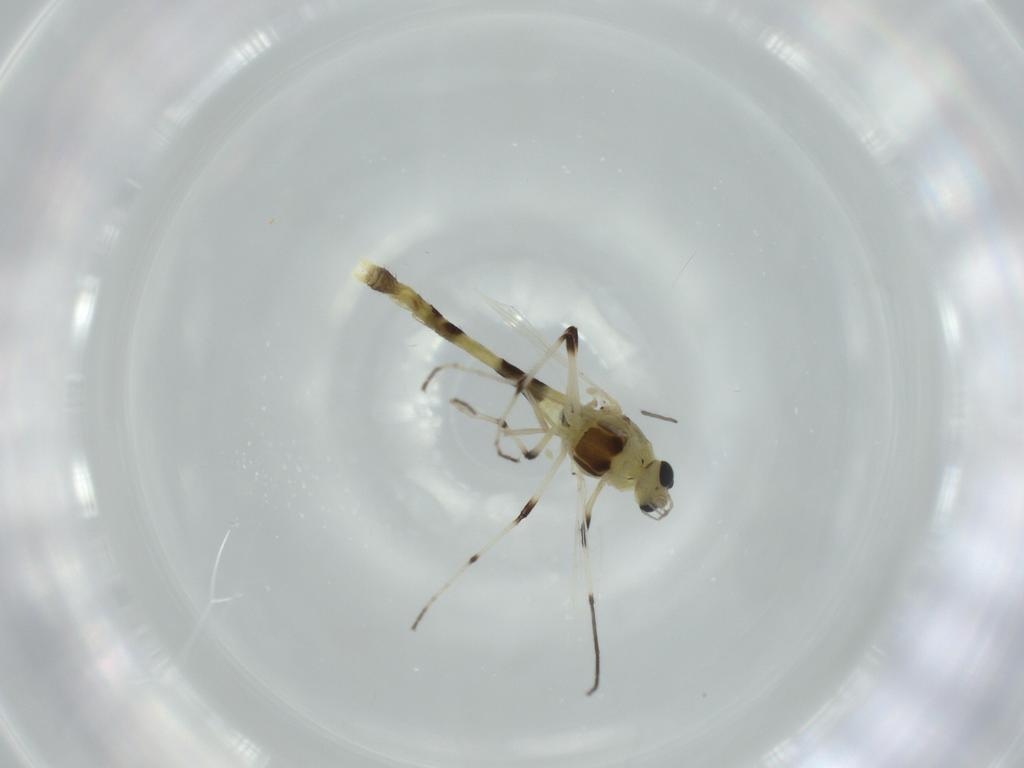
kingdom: Animalia
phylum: Arthropoda
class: Insecta
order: Diptera
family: Chironomidae
